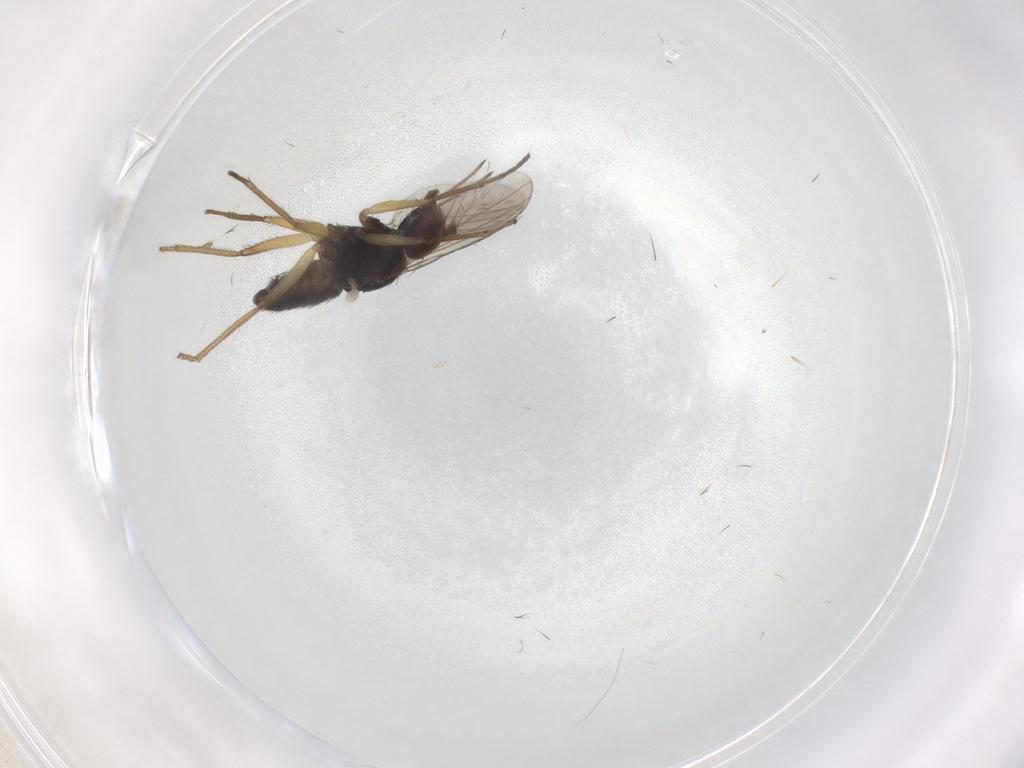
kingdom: Animalia
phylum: Arthropoda
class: Insecta
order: Diptera
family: Dolichopodidae
